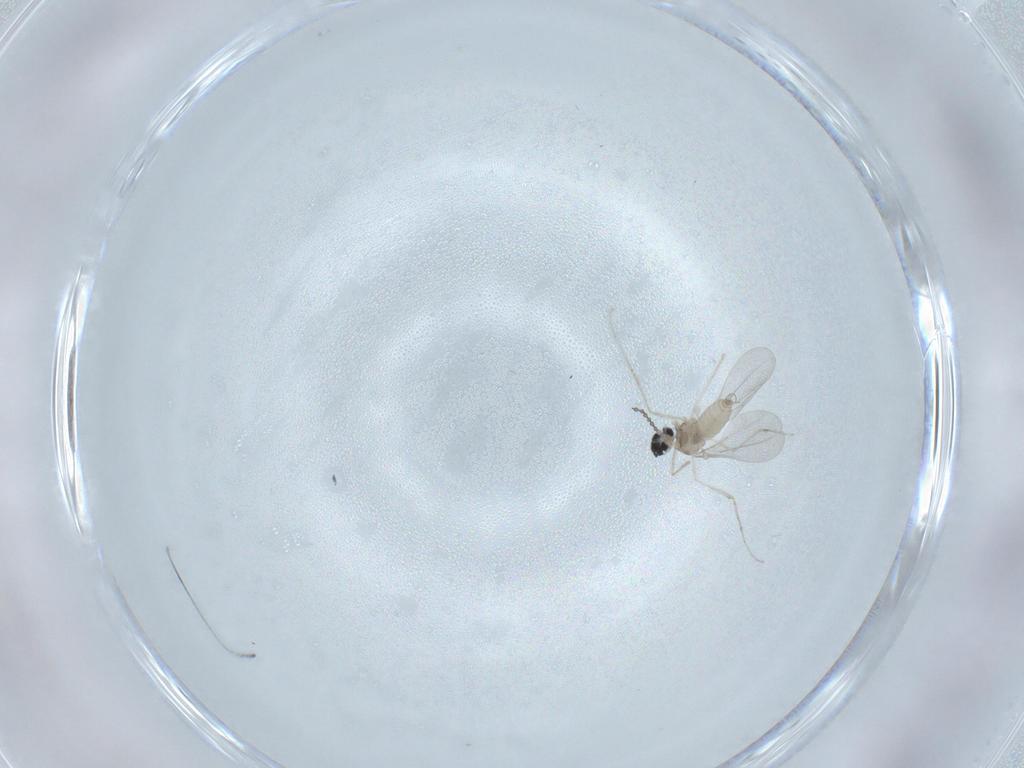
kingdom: Animalia
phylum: Arthropoda
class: Insecta
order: Diptera
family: Cecidomyiidae
